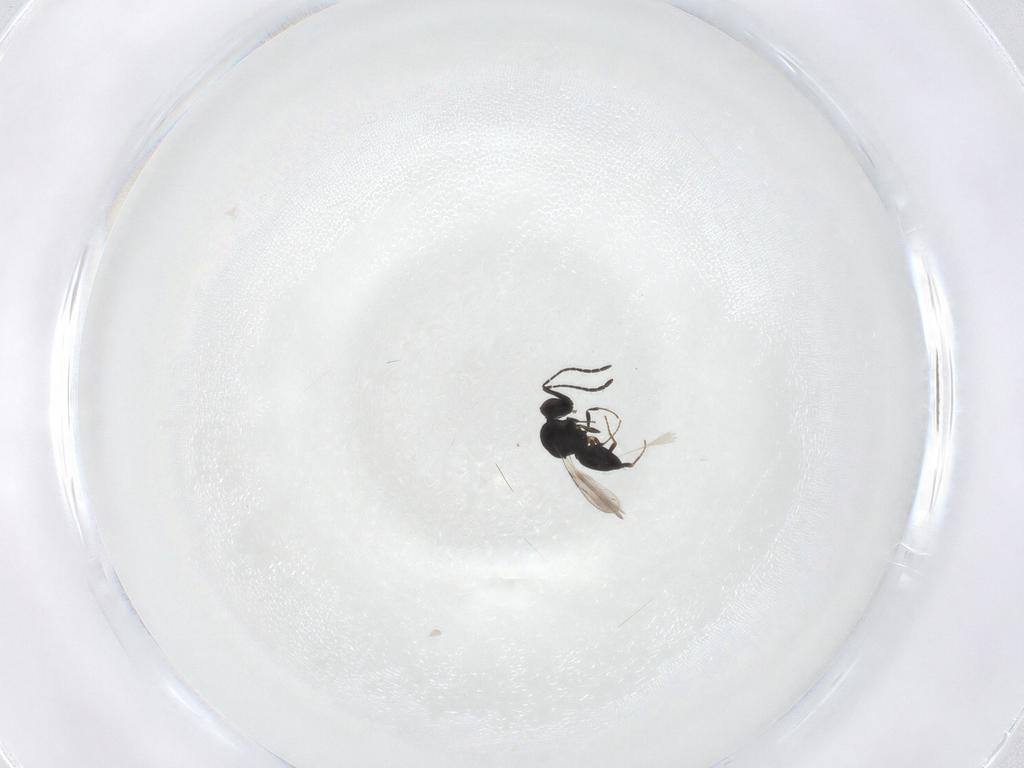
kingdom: Animalia
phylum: Arthropoda
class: Insecta
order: Hymenoptera
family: Ceraphronidae
